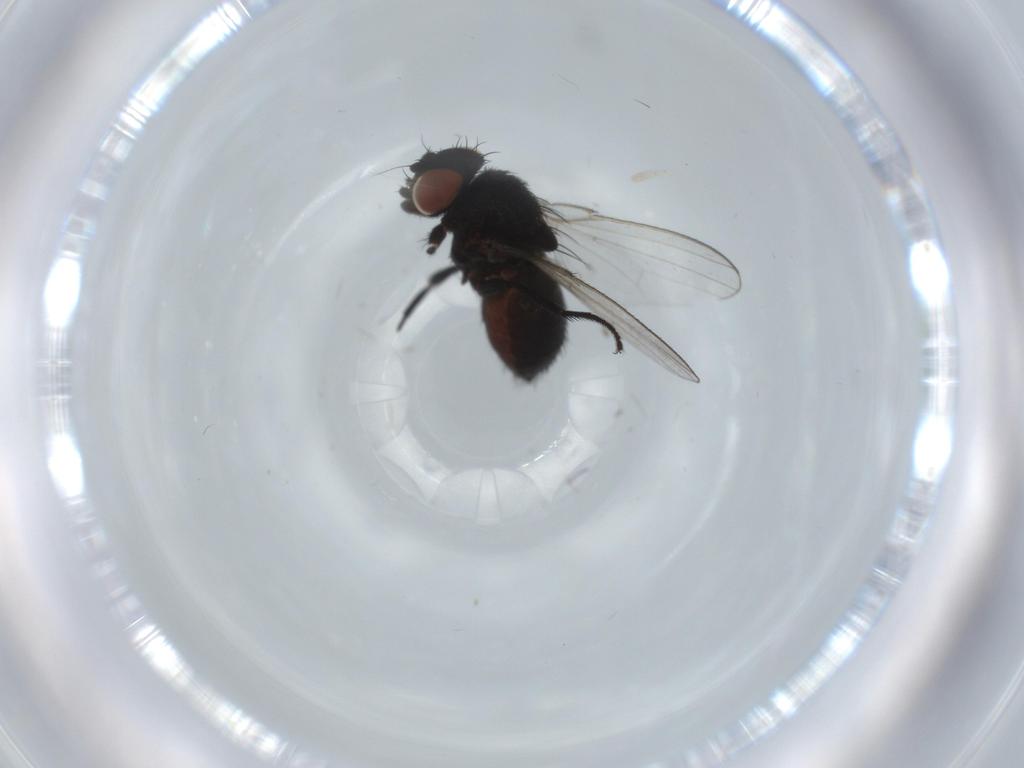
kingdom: Animalia
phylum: Arthropoda
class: Insecta
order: Diptera
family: Milichiidae
